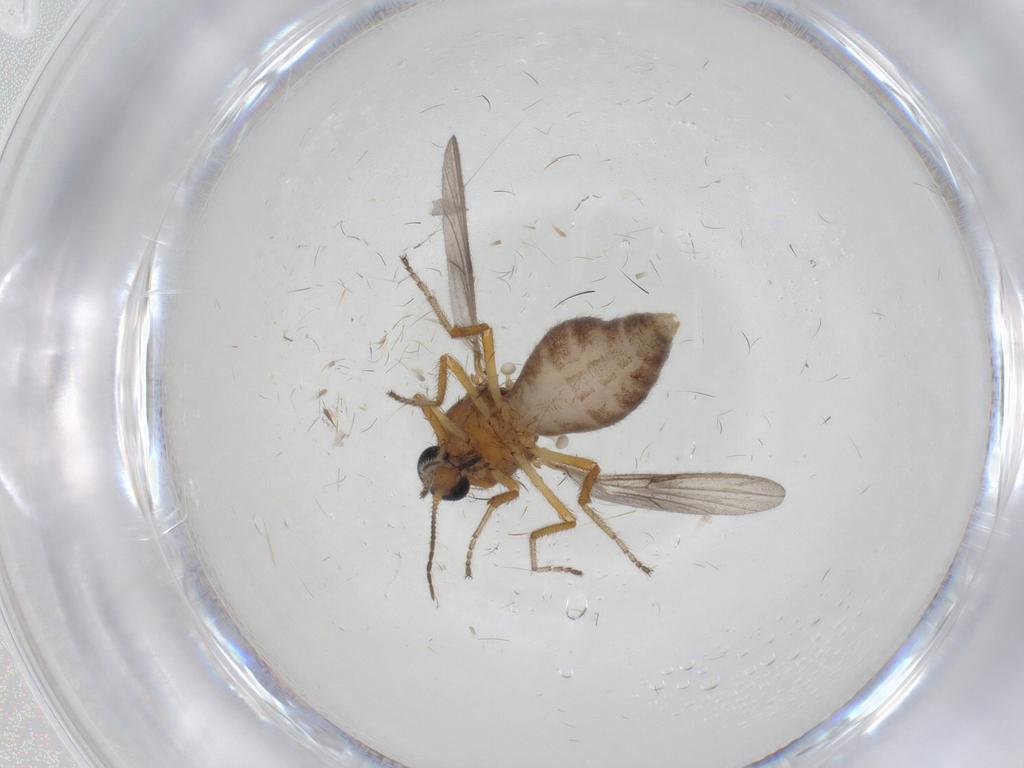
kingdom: Animalia
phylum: Arthropoda
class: Insecta
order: Diptera
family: Ceratopogonidae
